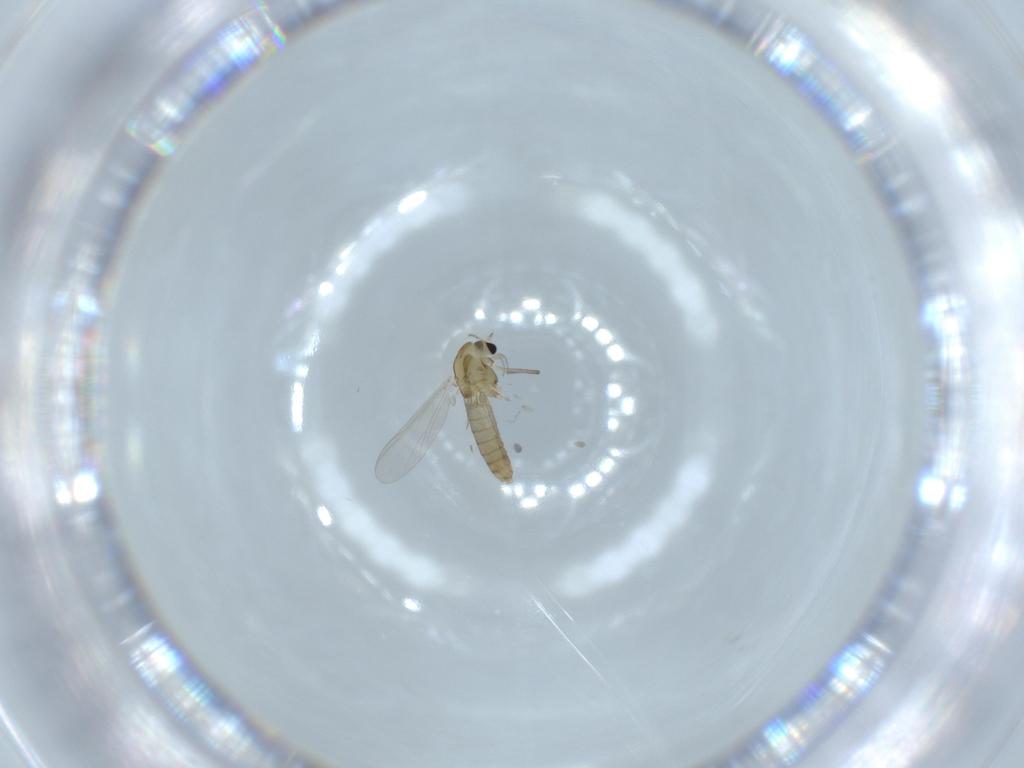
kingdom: Animalia
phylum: Arthropoda
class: Insecta
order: Diptera
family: Chironomidae
